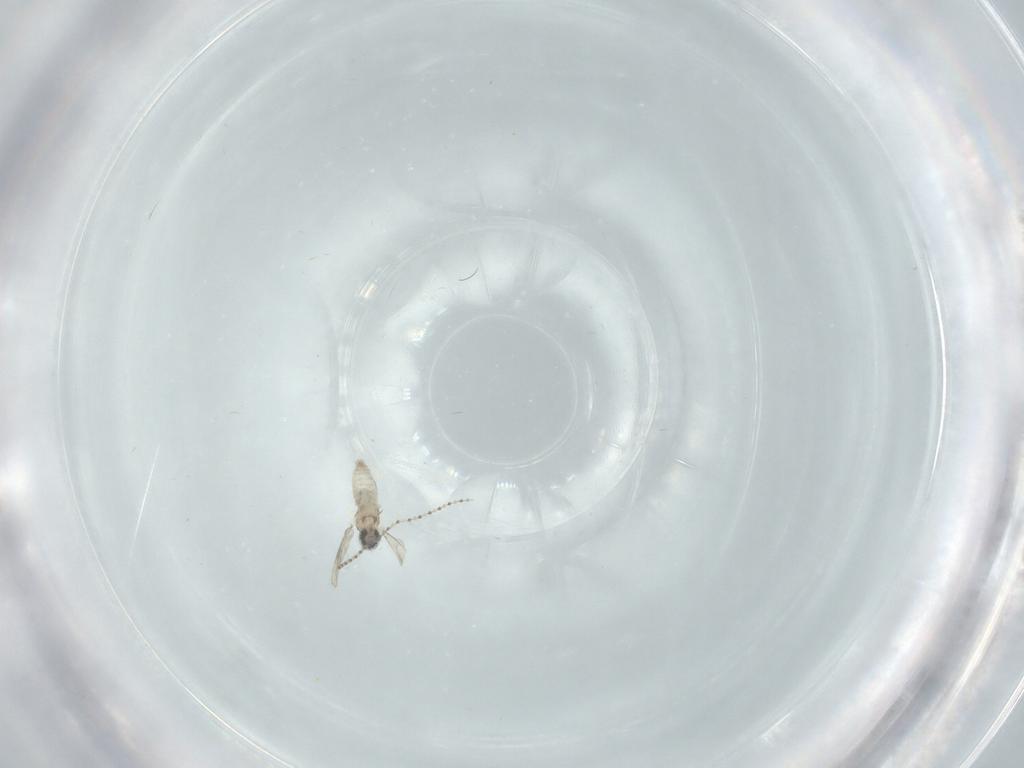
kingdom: Animalia
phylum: Arthropoda
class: Insecta
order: Diptera
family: Cecidomyiidae
